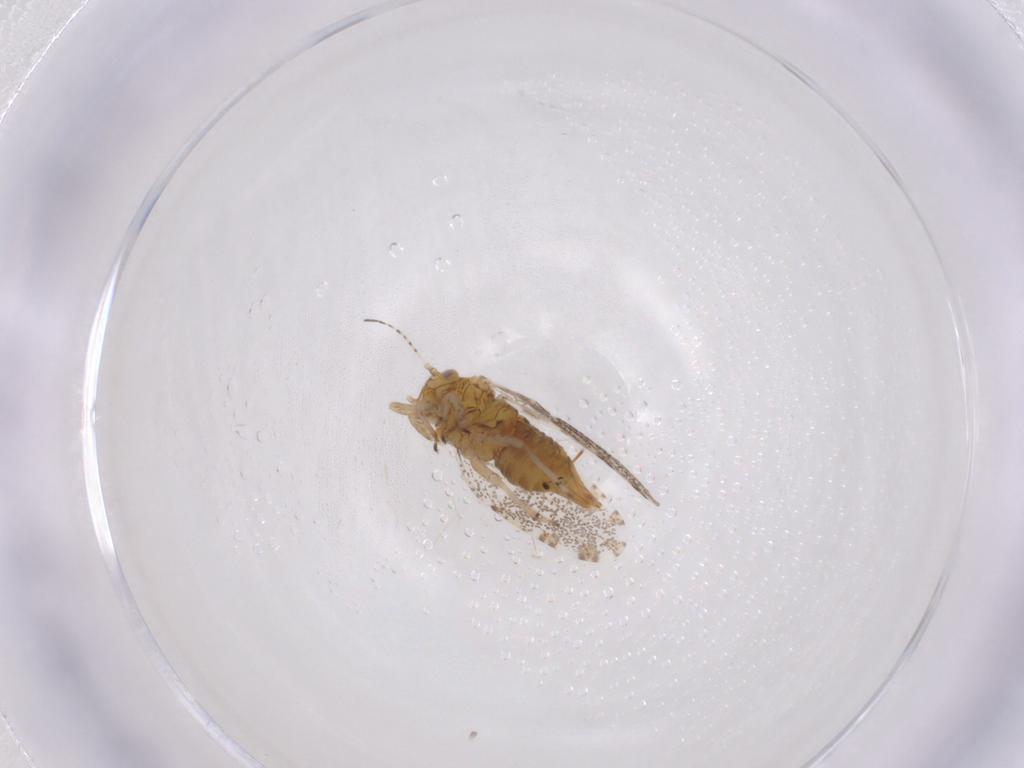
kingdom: Animalia
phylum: Arthropoda
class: Insecta
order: Hemiptera
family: Psylloidea_incertae_sedis
